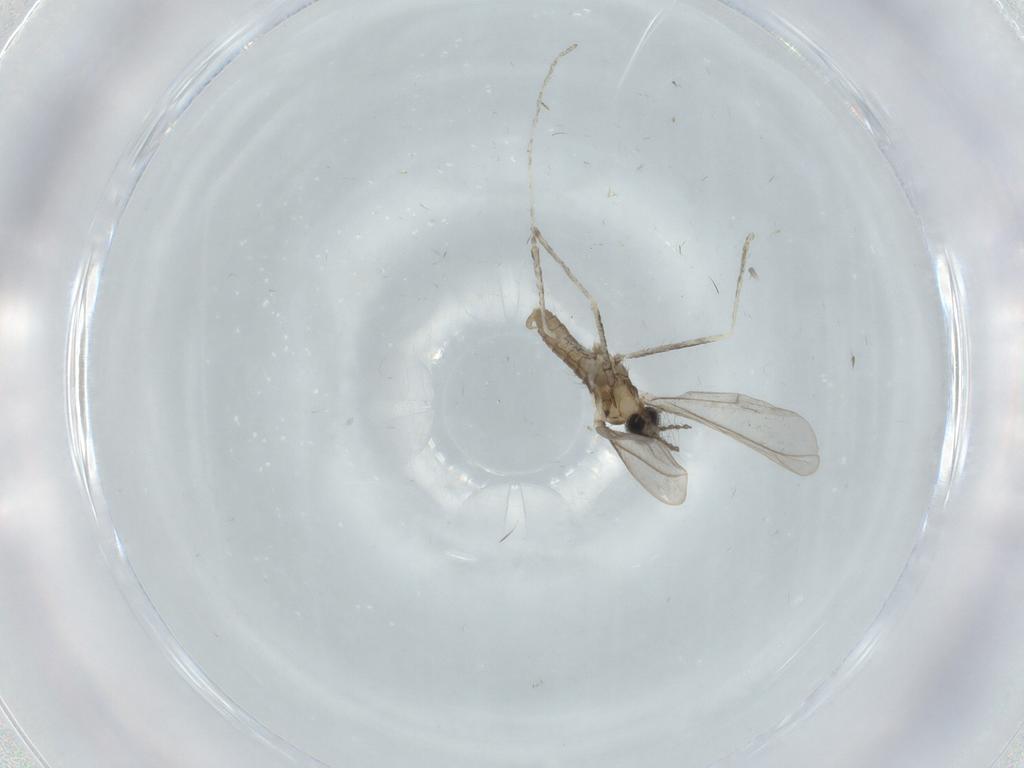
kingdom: Animalia
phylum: Arthropoda
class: Insecta
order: Diptera
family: Cecidomyiidae
